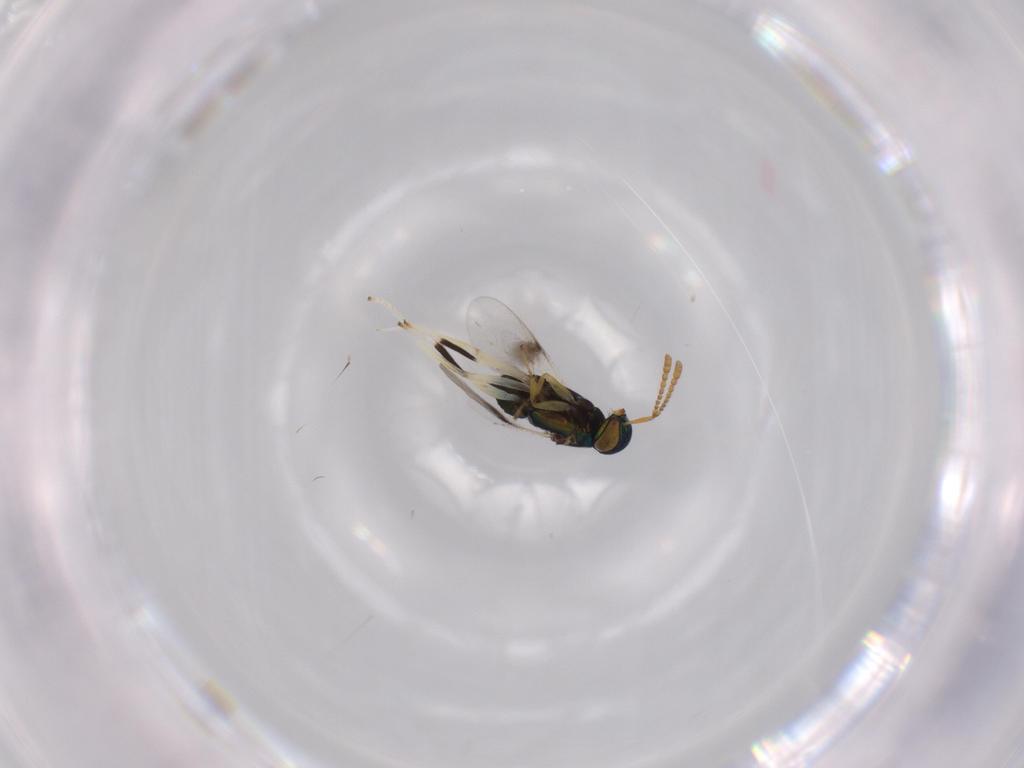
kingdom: Animalia
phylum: Arthropoda
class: Insecta
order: Hymenoptera
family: Encyrtidae
